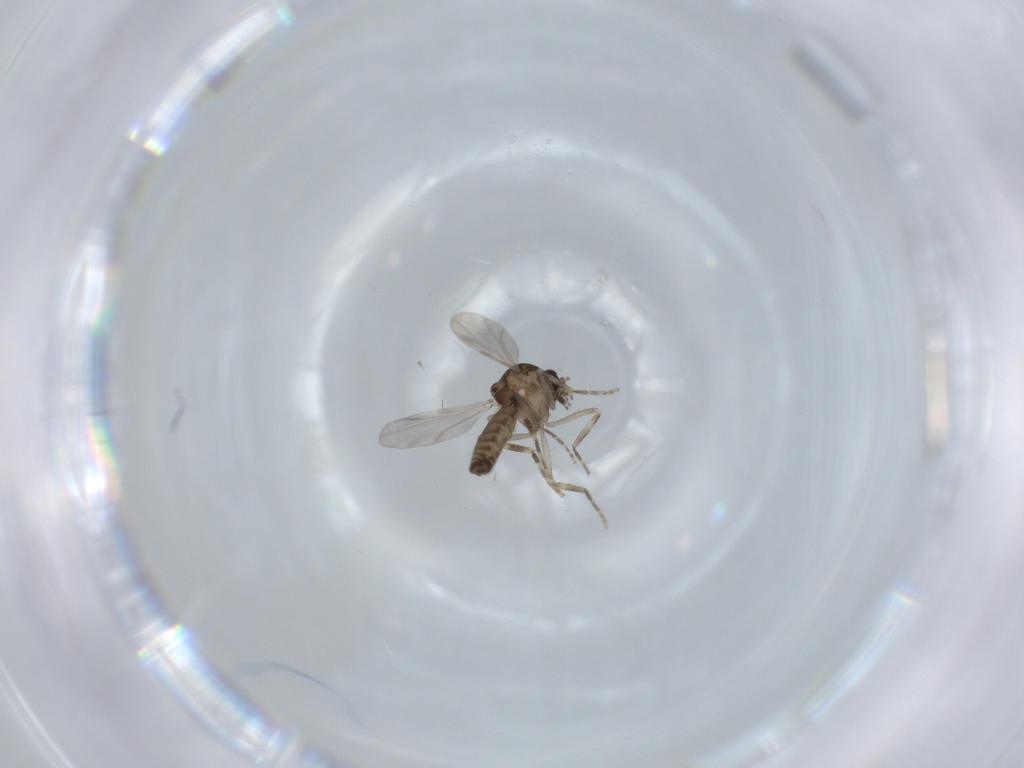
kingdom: Animalia
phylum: Arthropoda
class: Insecta
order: Diptera
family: Ceratopogonidae
